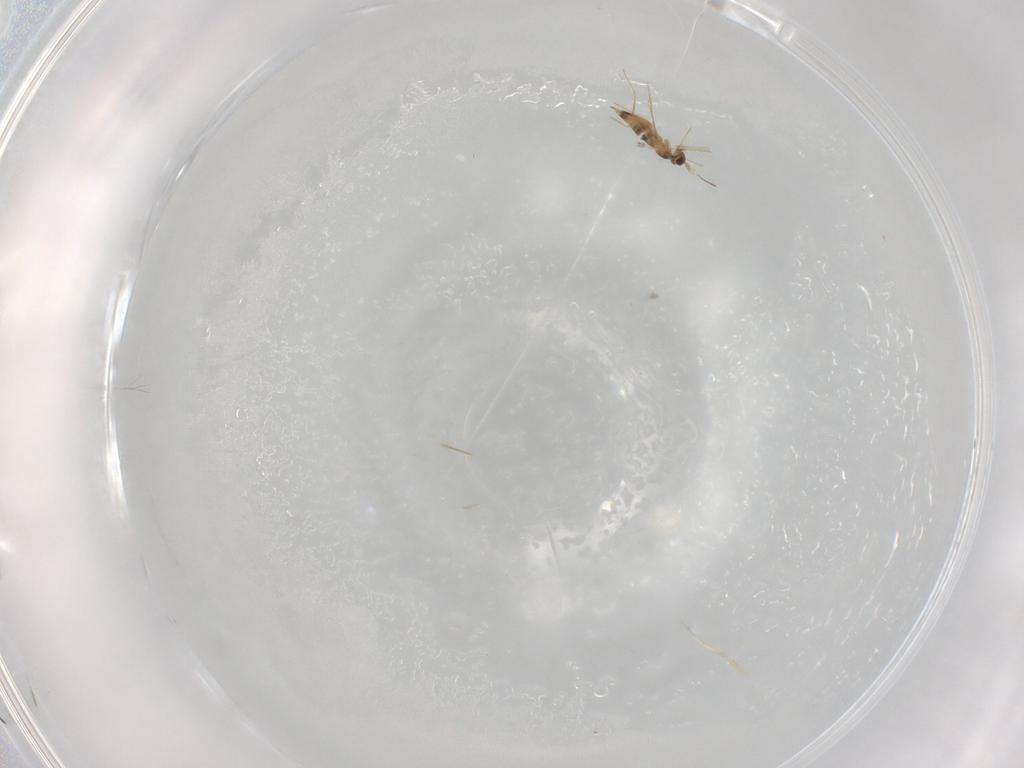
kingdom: Animalia
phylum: Arthropoda
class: Insecta
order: Hymenoptera
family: Mymaridae
